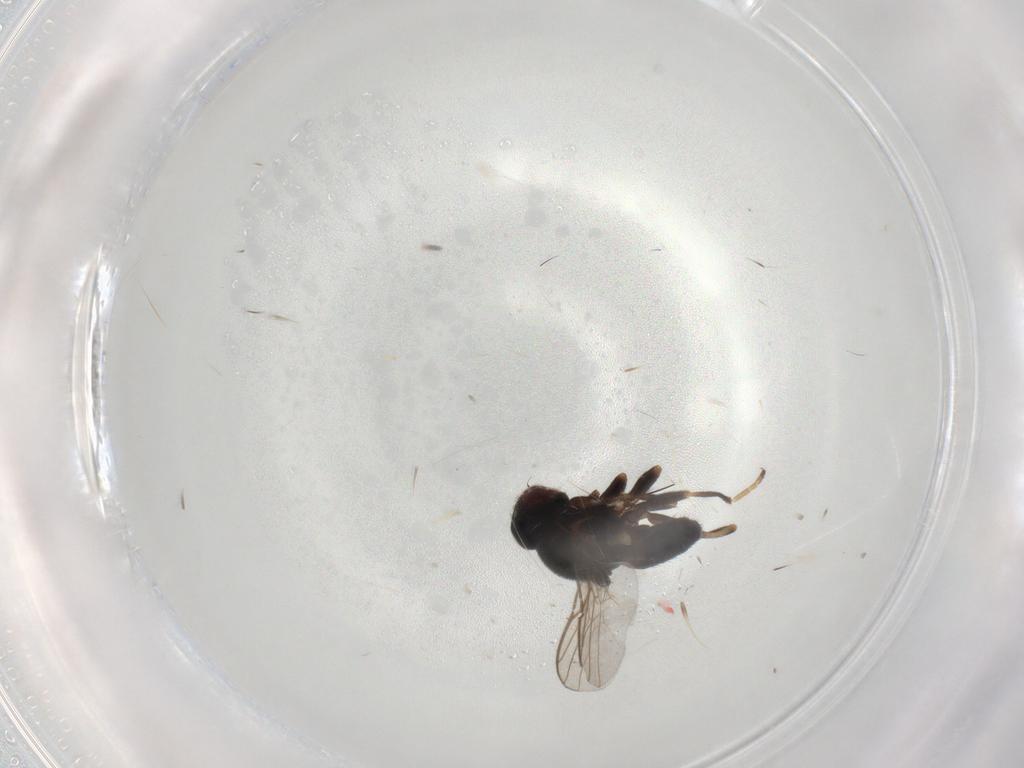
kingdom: Animalia
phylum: Arthropoda
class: Insecta
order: Diptera
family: Chloropidae
